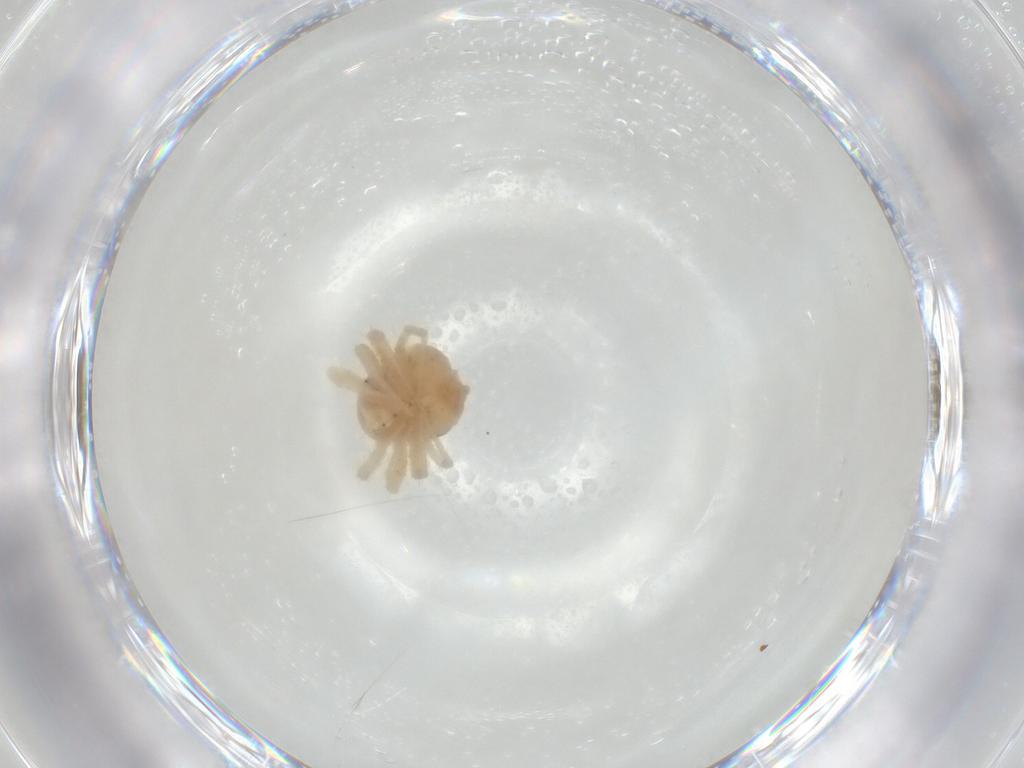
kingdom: Animalia
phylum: Arthropoda
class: Arachnida
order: Trombidiformes
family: Anystidae
